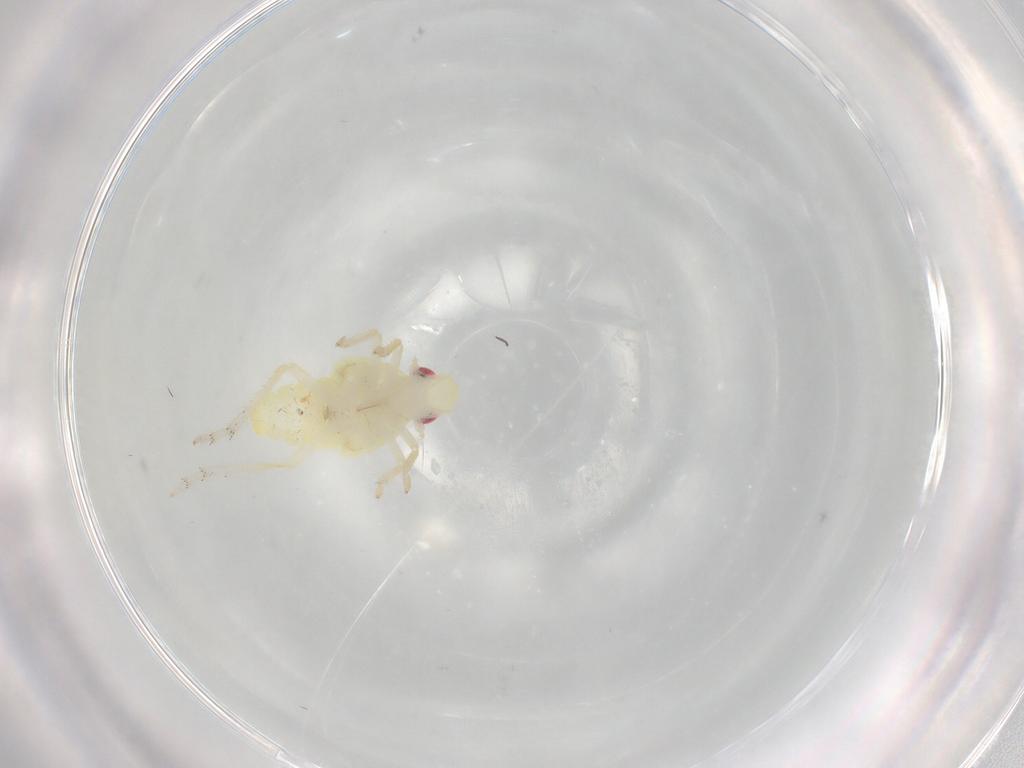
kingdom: Animalia
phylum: Arthropoda
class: Insecta
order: Hemiptera
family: Fulgoroidea_incertae_sedis
